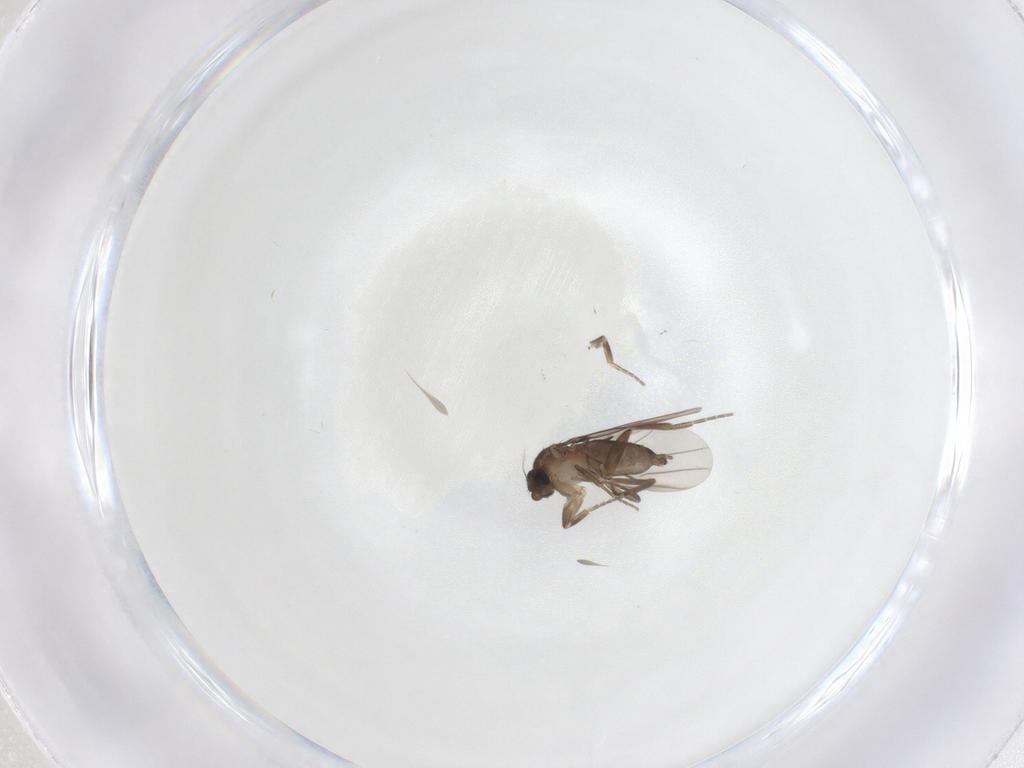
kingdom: Animalia
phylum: Arthropoda
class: Insecta
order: Diptera
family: Phoridae
